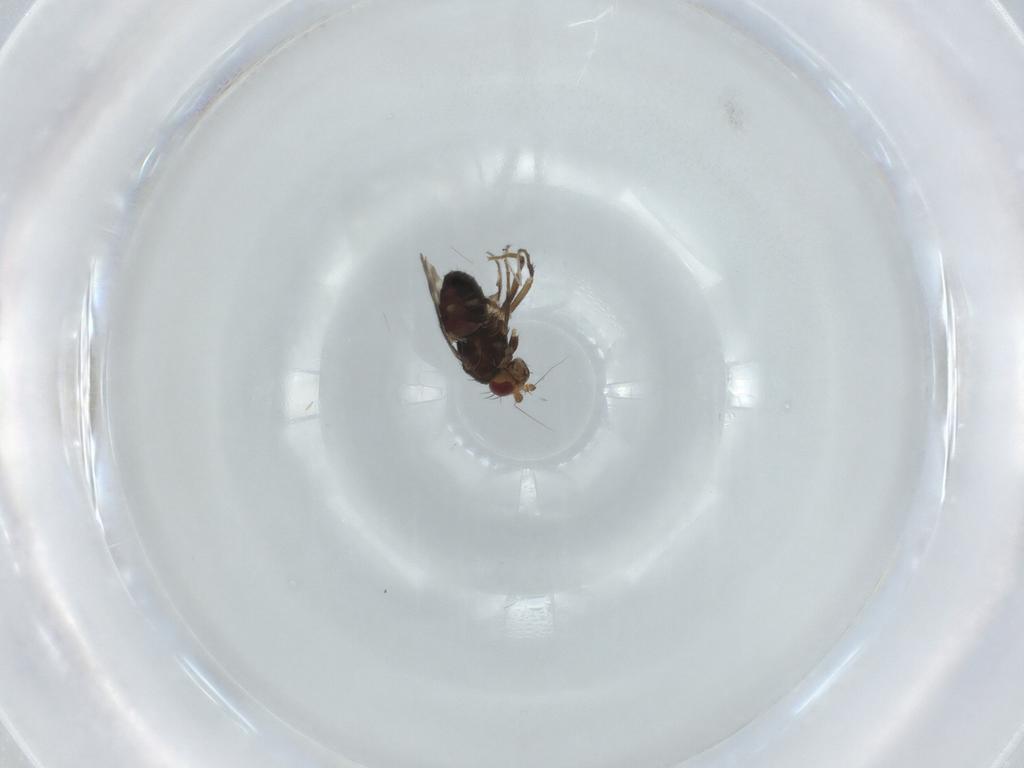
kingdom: Animalia
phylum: Arthropoda
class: Insecta
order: Diptera
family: Sphaeroceridae
